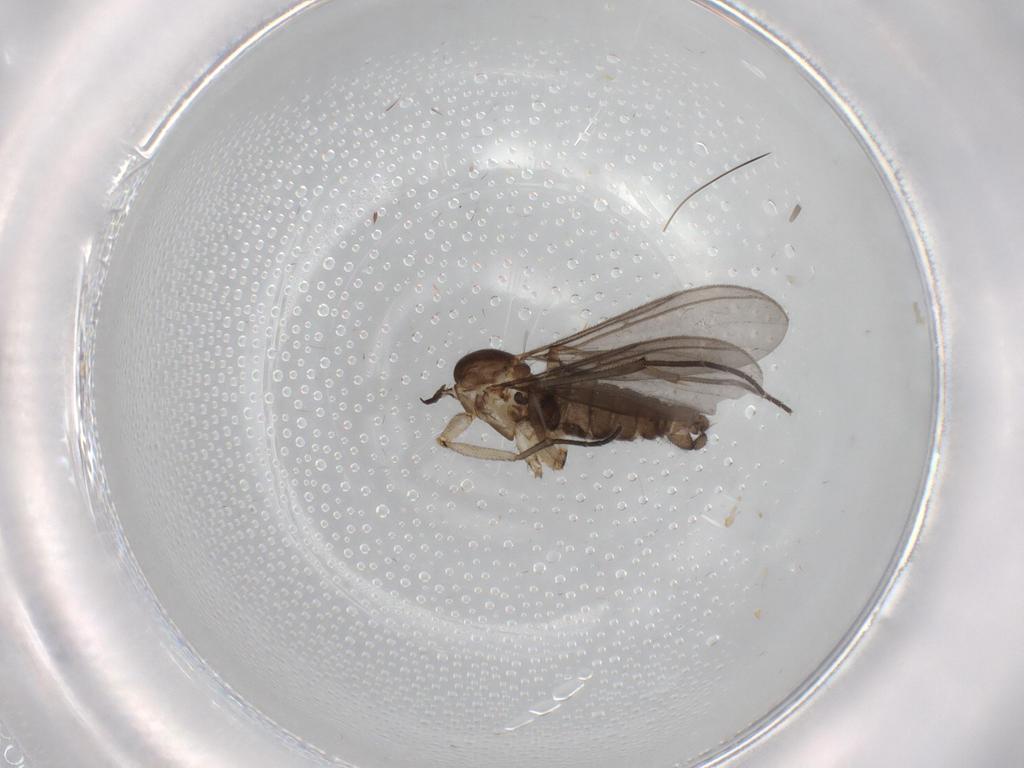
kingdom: Animalia
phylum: Arthropoda
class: Insecta
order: Diptera
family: Limoniidae
